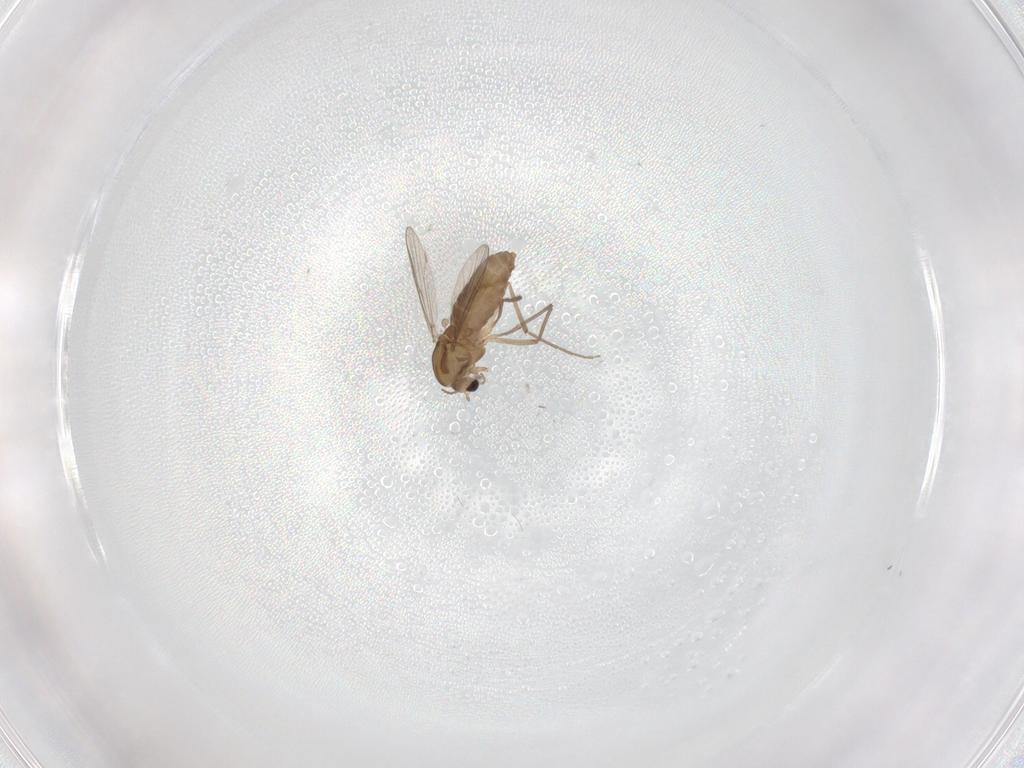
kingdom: Animalia
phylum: Arthropoda
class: Insecta
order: Diptera
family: Chironomidae
